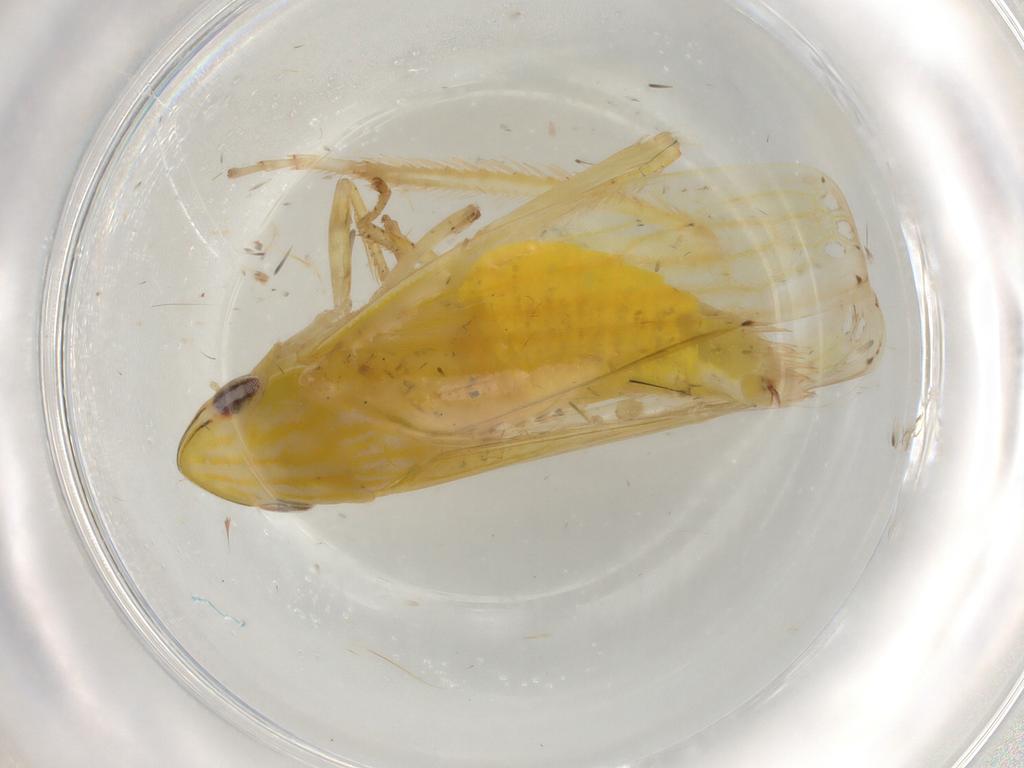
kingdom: Animalia
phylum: Arthropoda
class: Insecta
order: Hemiptera
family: Cicadellidae
